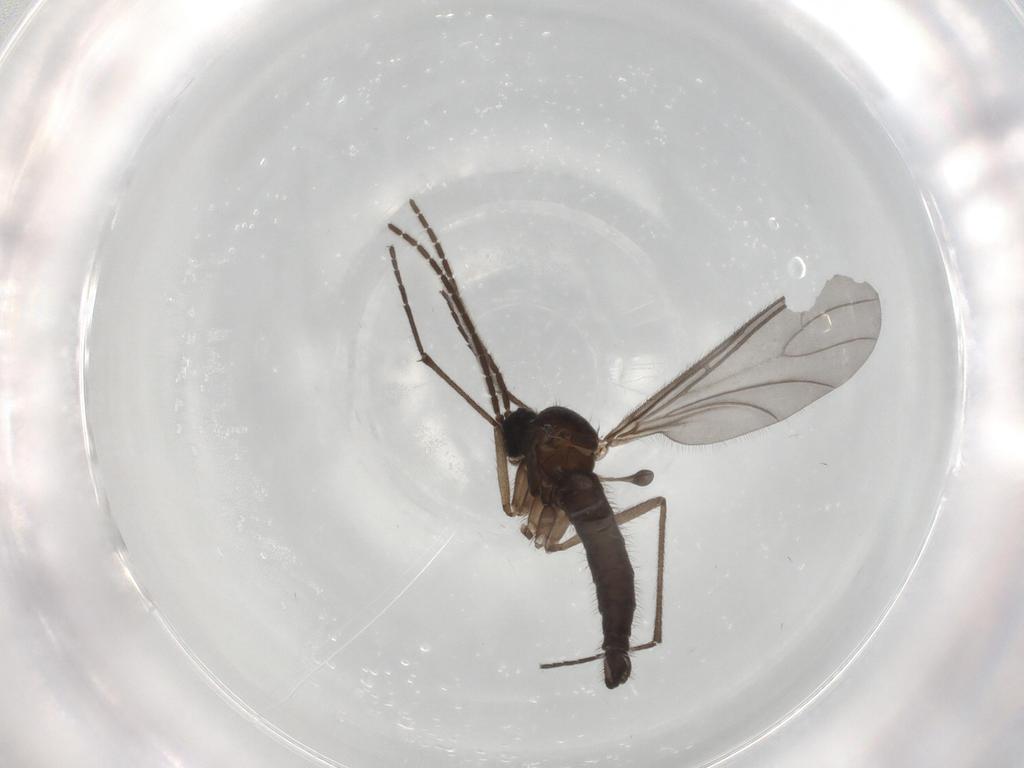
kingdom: Animalia
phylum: Arthropoda
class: Insecta
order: Diptera
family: Sciaridae
